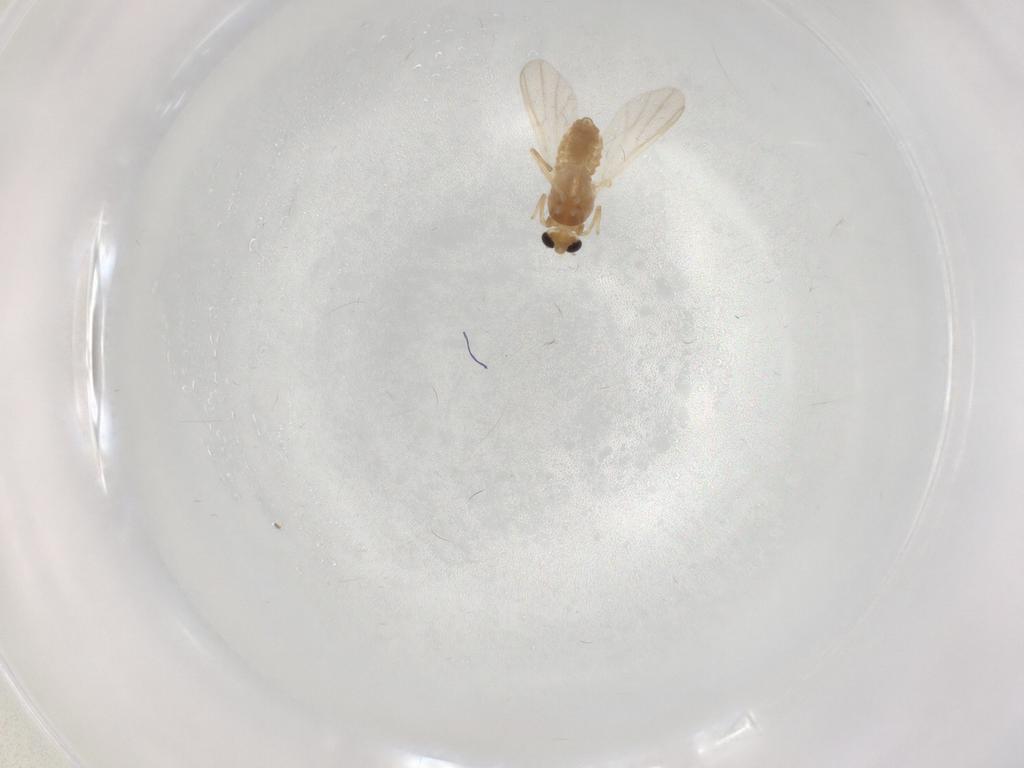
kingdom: Animalia
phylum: Arthropoda
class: Insecta
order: Diptera
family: Chironomidae
